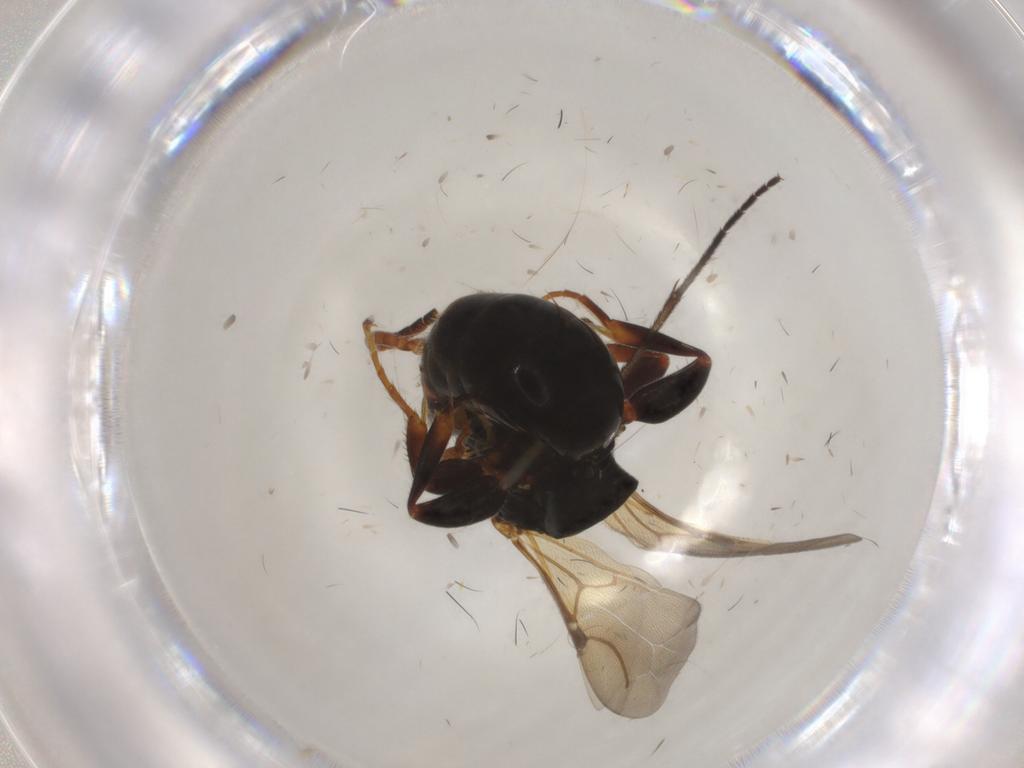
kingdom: Animalia
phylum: Arthropoda
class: Insecta
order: Hymenoptera
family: Bethylidae
